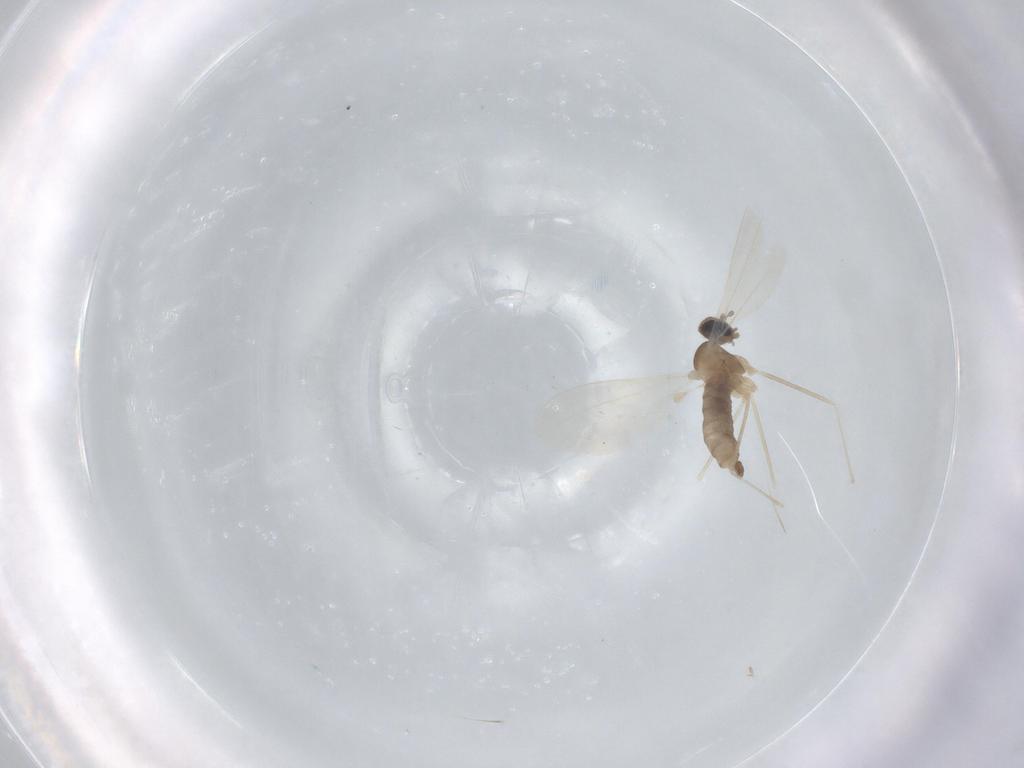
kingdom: Animalia
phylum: Arthropoda
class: Insecta
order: Diptera
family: Cecidomyiidae
